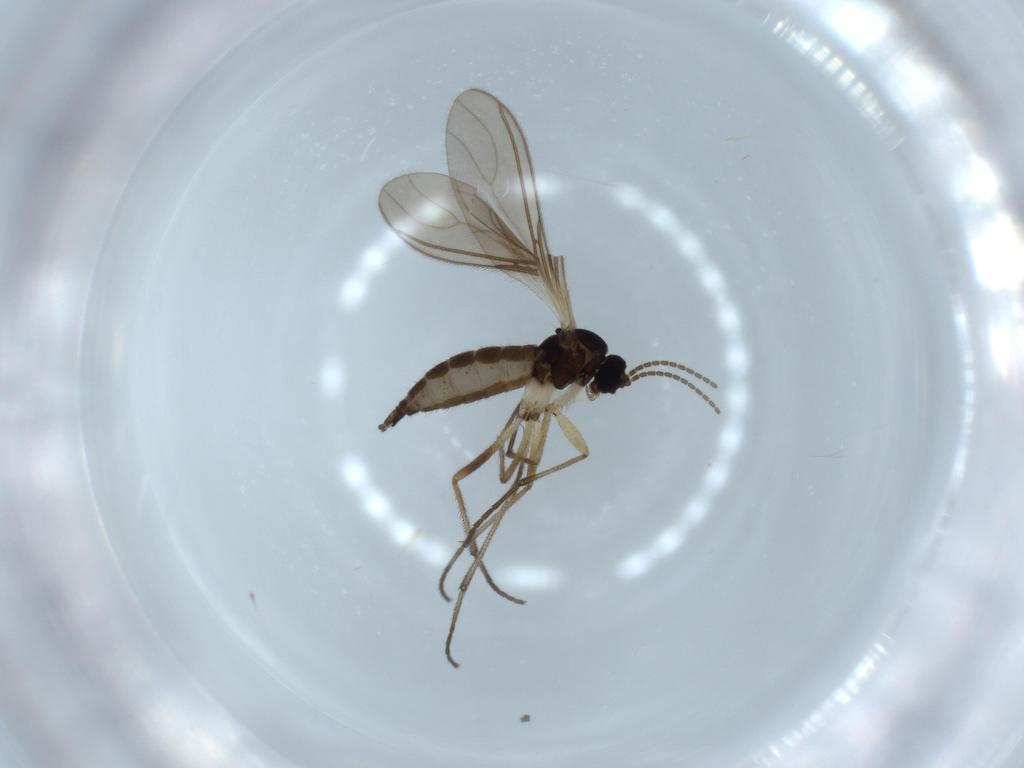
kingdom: Animalia
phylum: Arthropoda
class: Insecta
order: Diptera
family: Sciaridae
